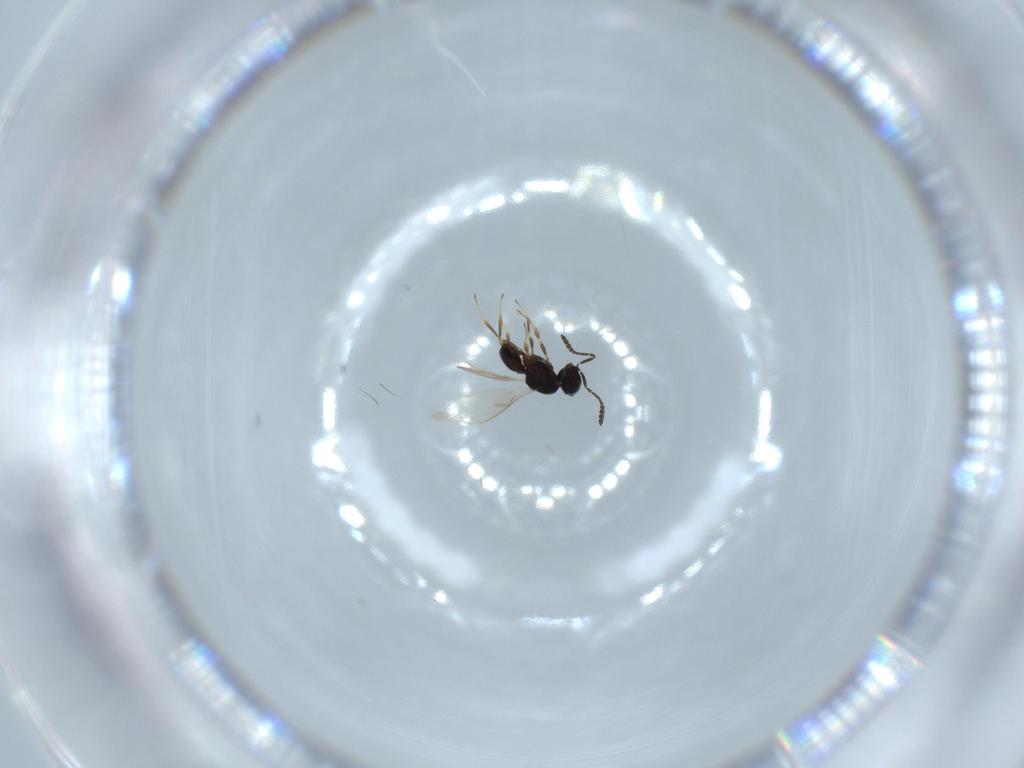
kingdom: Animalia
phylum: Arthropoda
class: Insecta
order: Hymenoptera
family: Scelionidae
